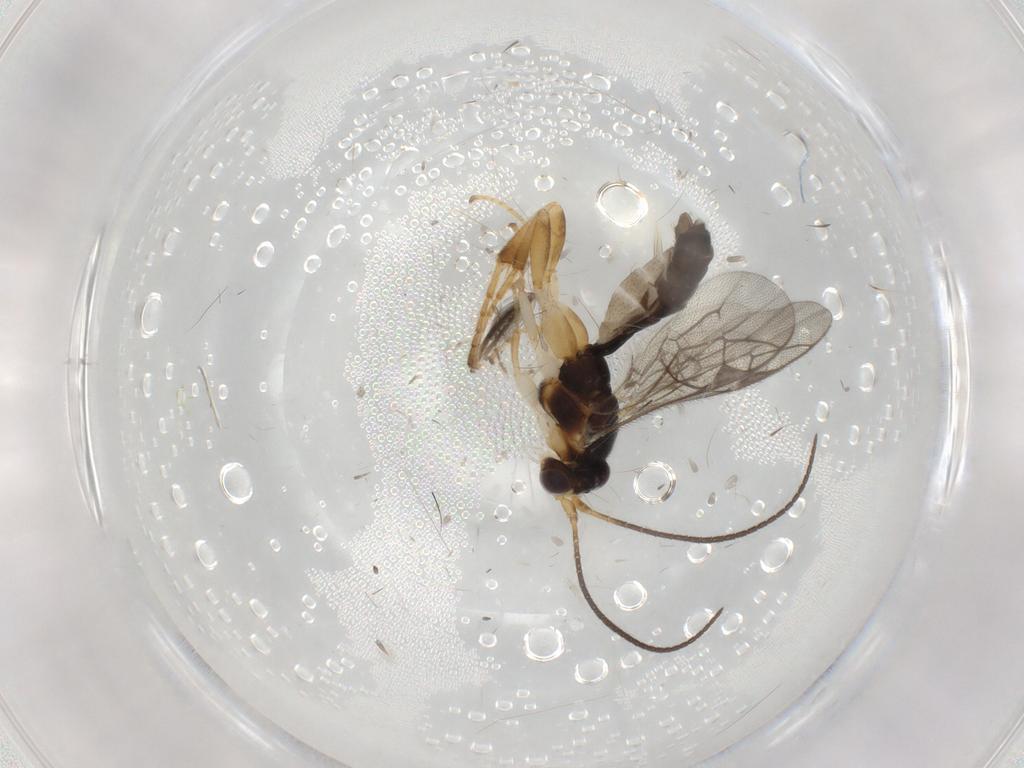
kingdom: Animalia
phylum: Arthropoda
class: Insecta
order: Hymenoptera
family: Ichneumonidae
